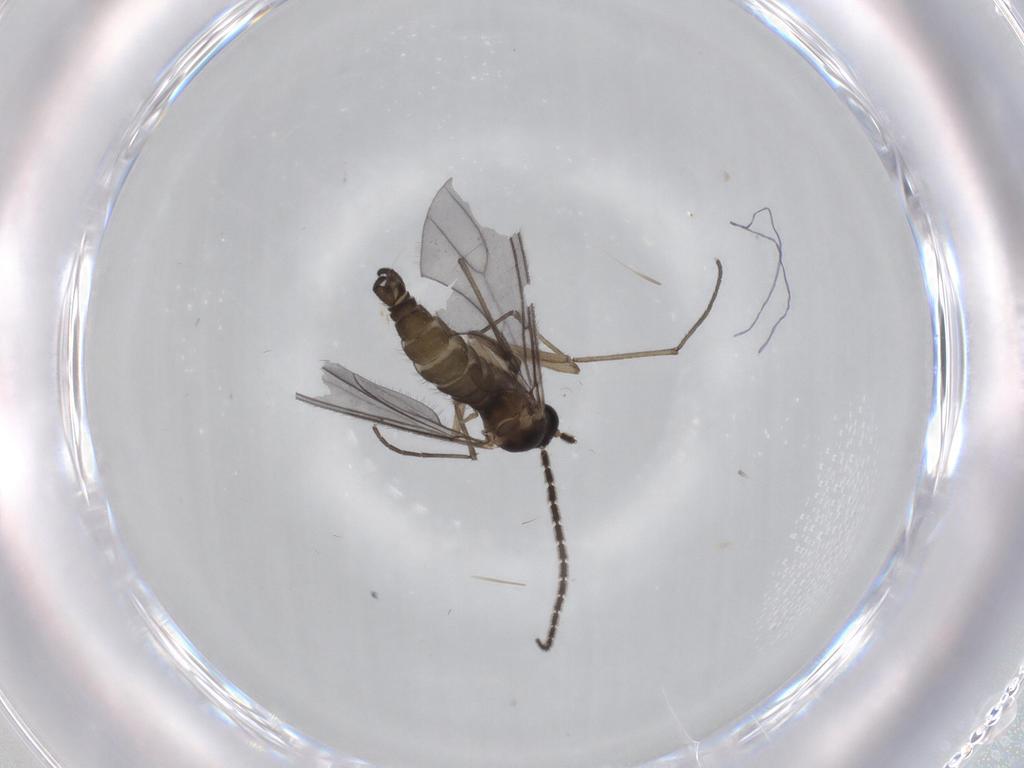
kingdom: Animalia
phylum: Arthropoda
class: Insecta
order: Diptera
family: Sciaridae
